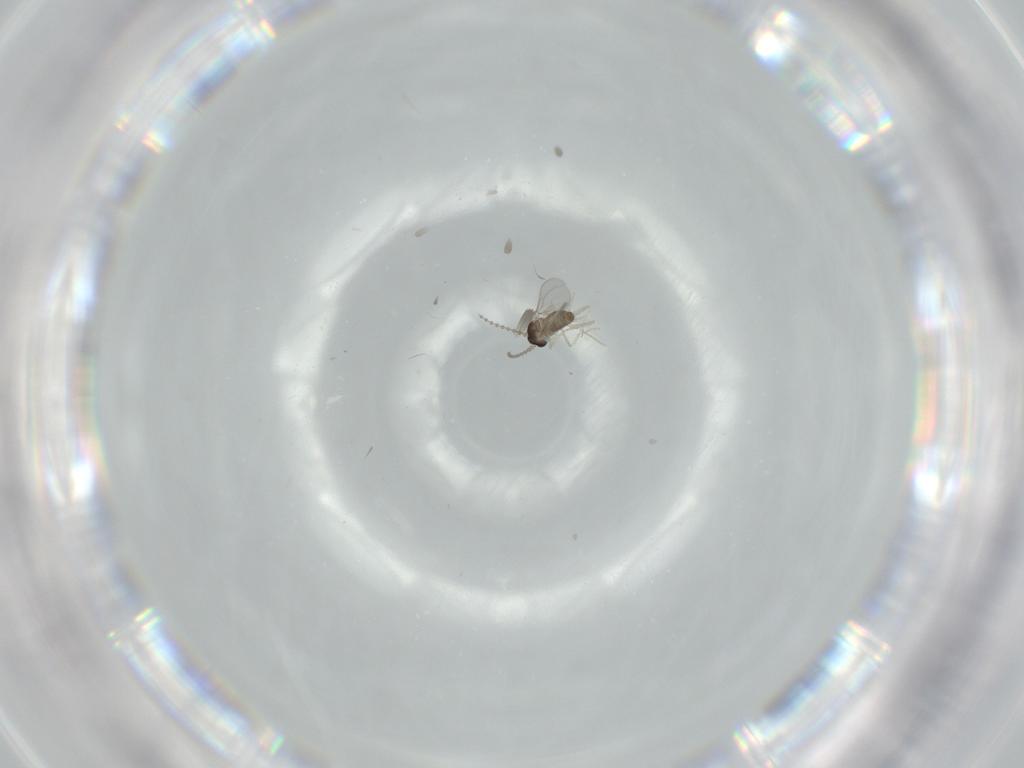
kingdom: Animalia
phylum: Arthropoda
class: Insecta
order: Diptera
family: Cecidomyiidae
